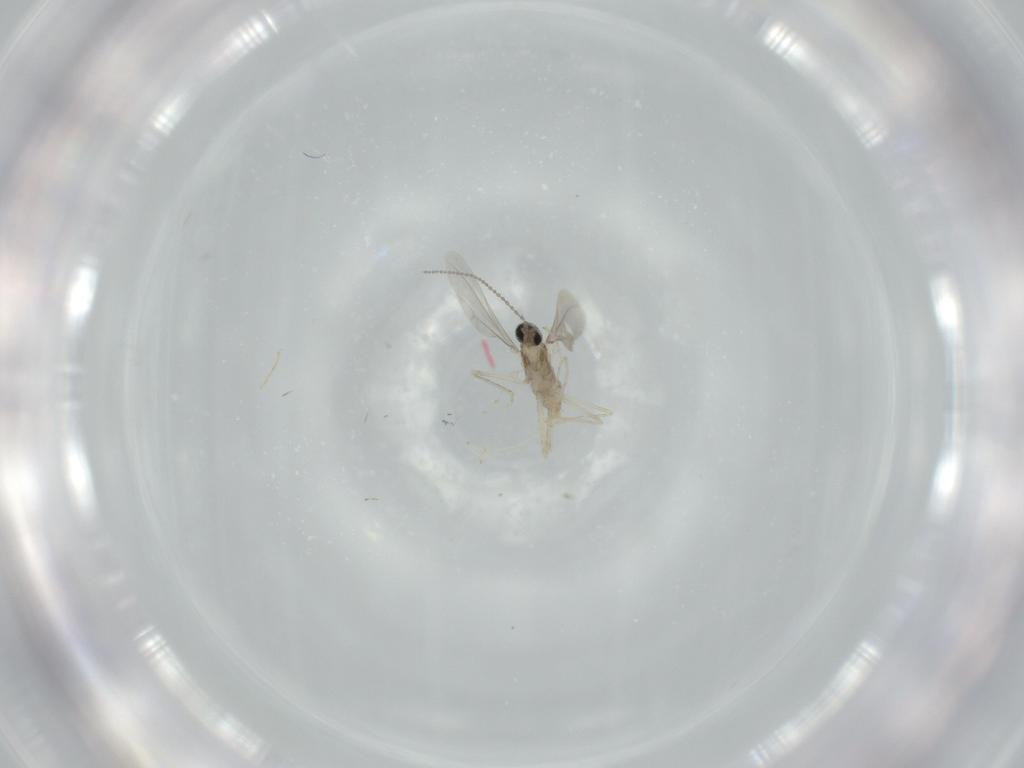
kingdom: Animalia
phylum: Arthropoda
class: Insecta
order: Diptera
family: Cecidomyiidae
